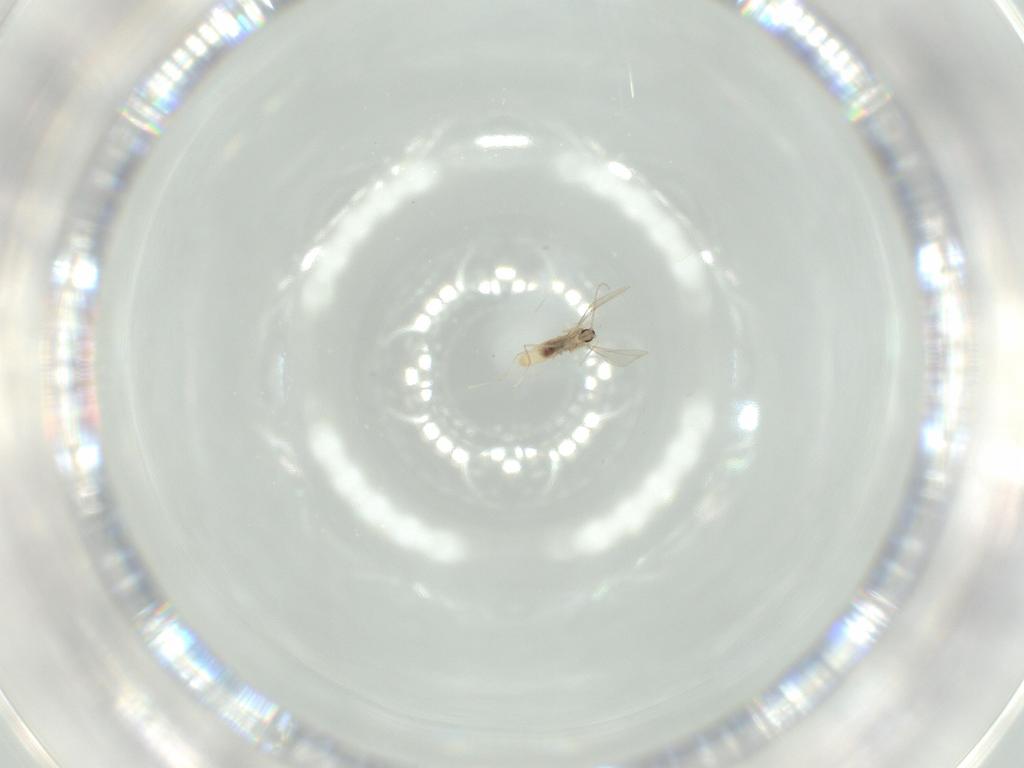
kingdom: Animalia
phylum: Arthropoda
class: Insecta
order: Diptera
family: Cecidomyiidae
